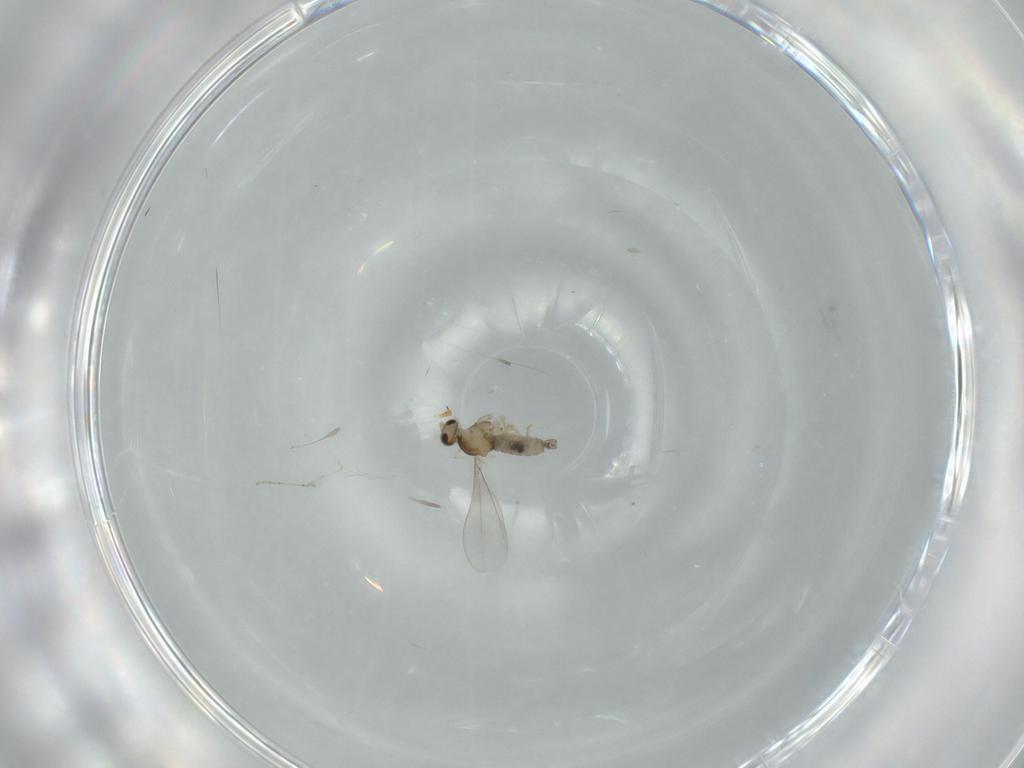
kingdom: Animalia
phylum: Arthropoda
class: Insecta
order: Diptera
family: Cecidomyiidae
